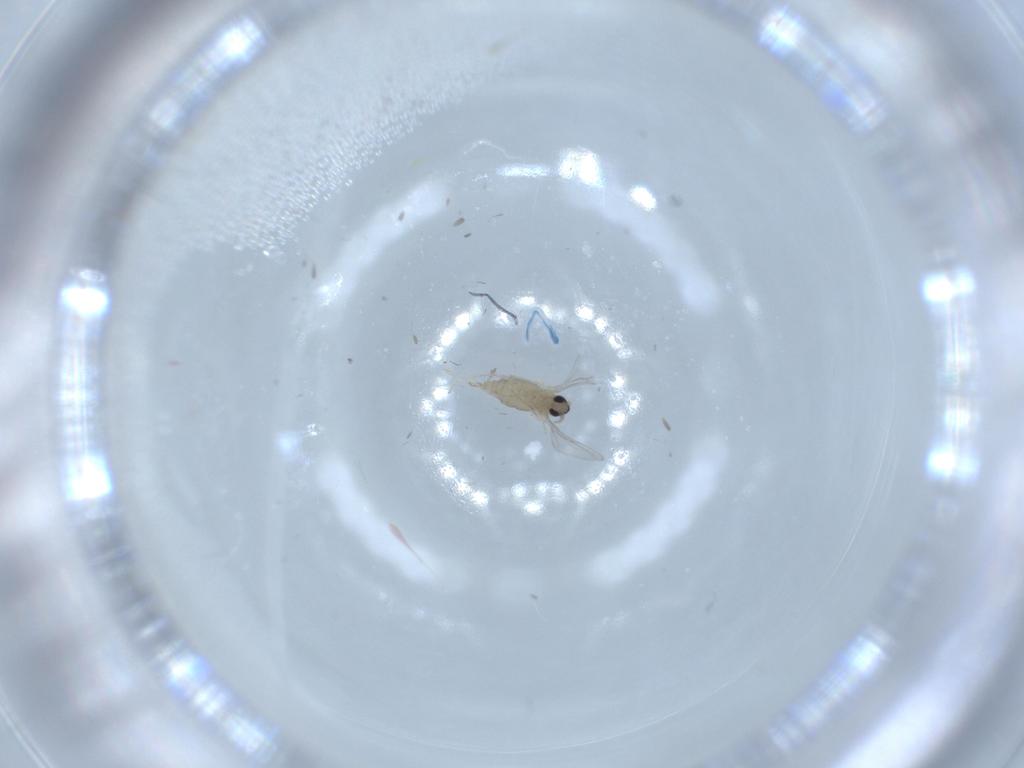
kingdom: Animalia
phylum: Arthropoda
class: Insecta
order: Diptera
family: Cecidomyiidae
